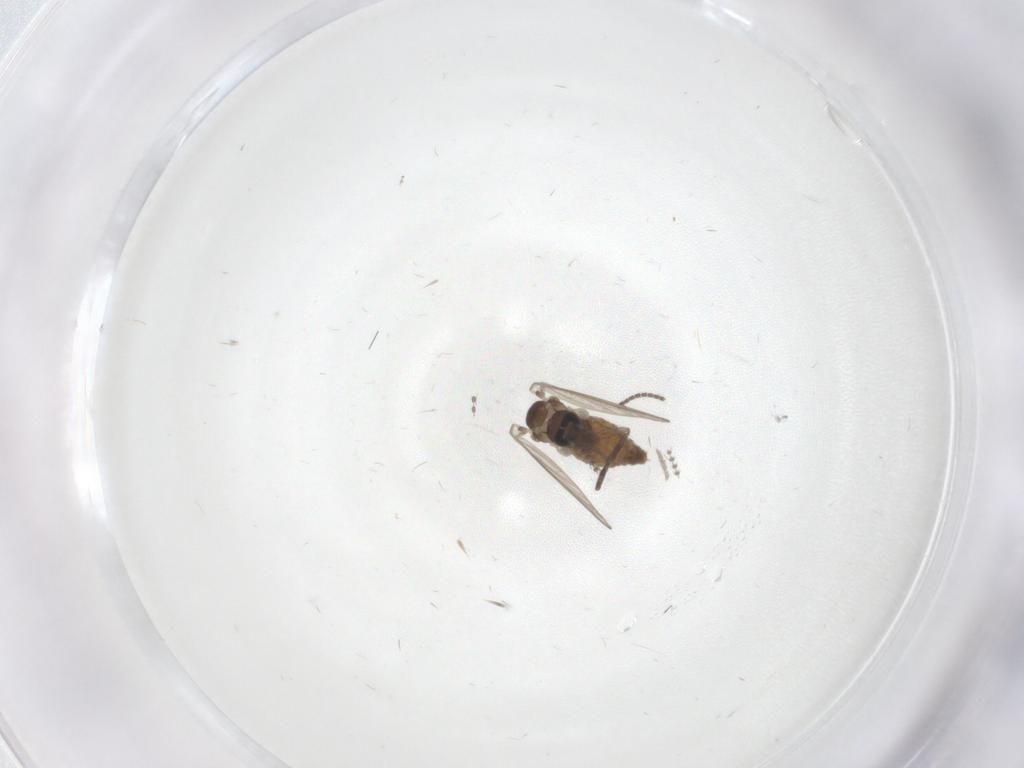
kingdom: Animalia
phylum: Arthropoda
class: Insecta
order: Diptera
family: Psychodidae
